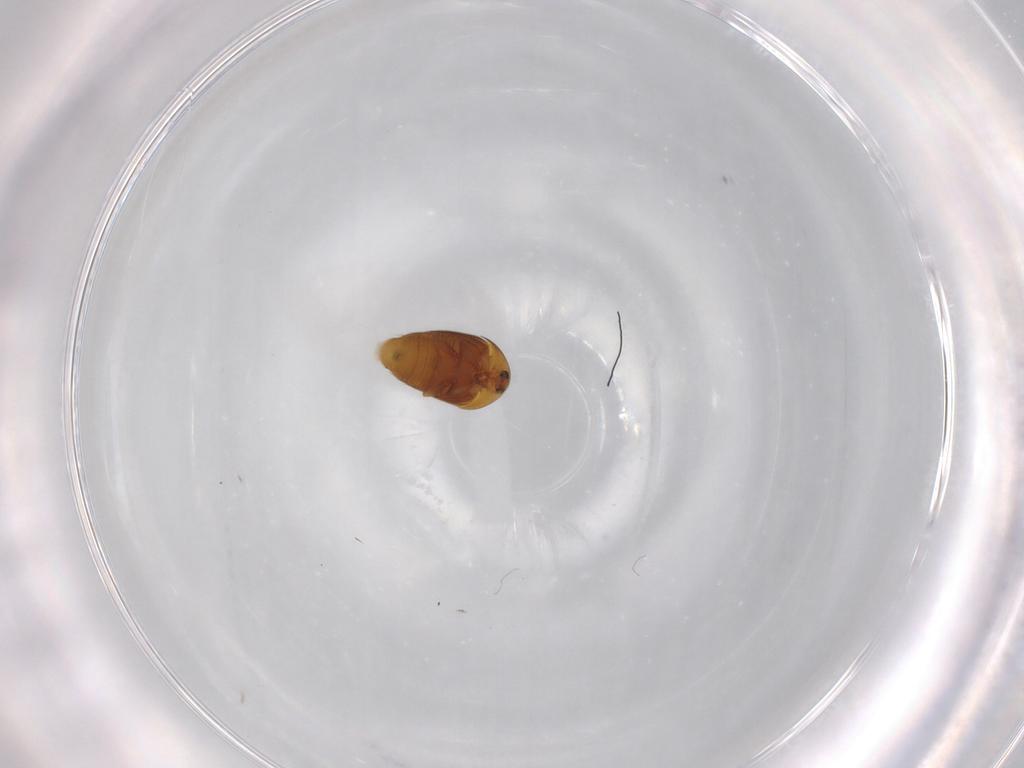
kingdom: Animalia
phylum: Arthropoda
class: Insecta
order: Coleoptera
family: Corylophidae
